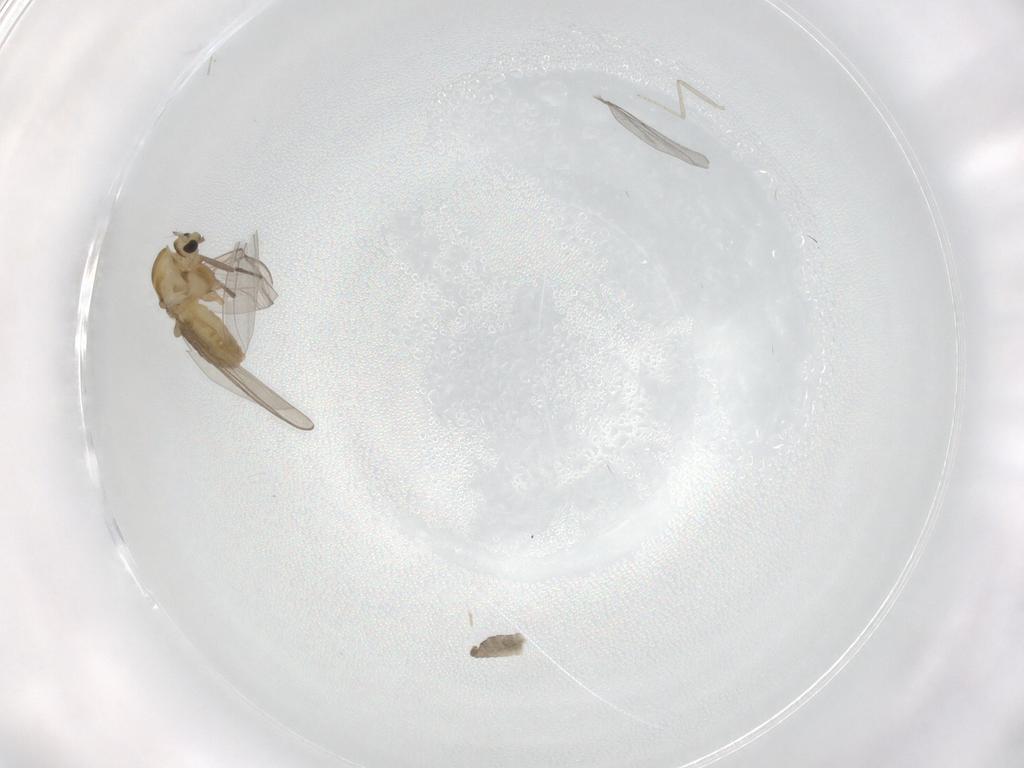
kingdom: Animalia
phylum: Arthropoda
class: Insecta
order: Diptera
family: Chironomidae
